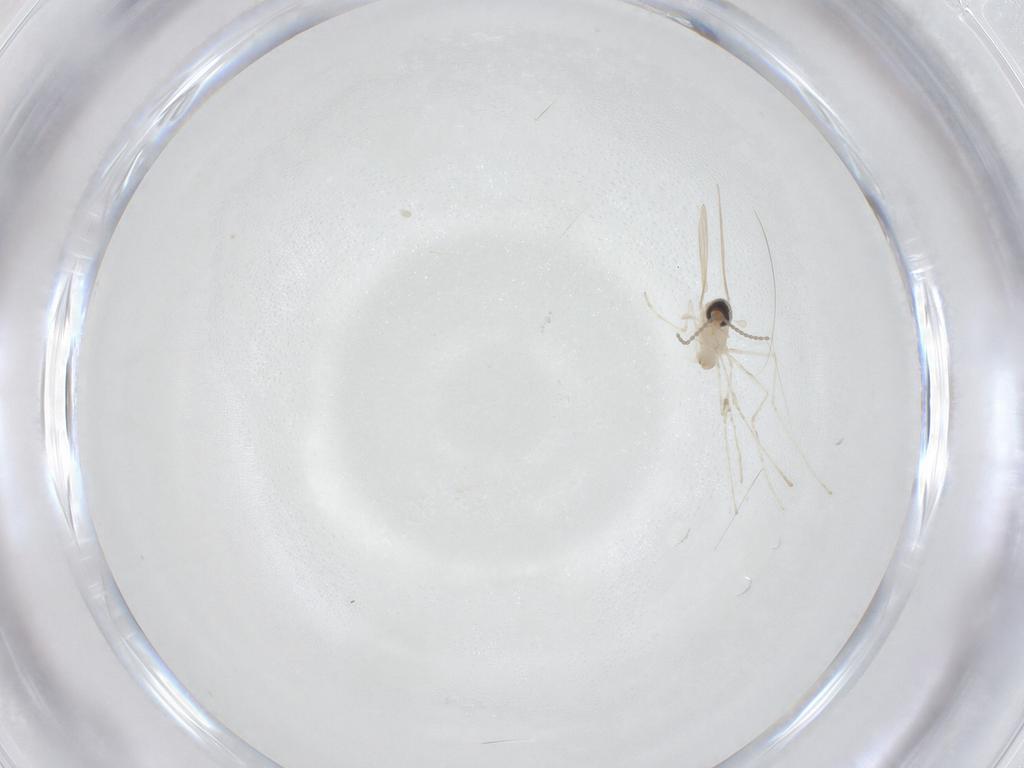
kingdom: Animalia
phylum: Arthropoda
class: Insecta
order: Diptera
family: Cecidomyiidae
